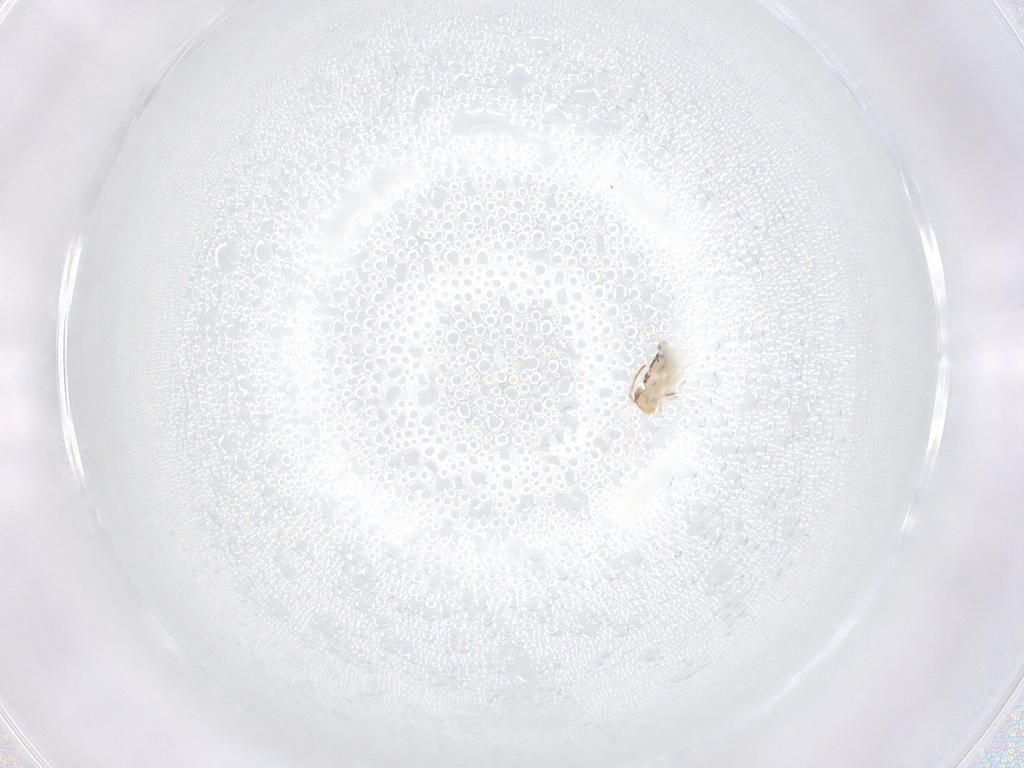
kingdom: Animalia
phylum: Arthropoda
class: Collembola
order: Symphypleona
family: Bourletiellidae
